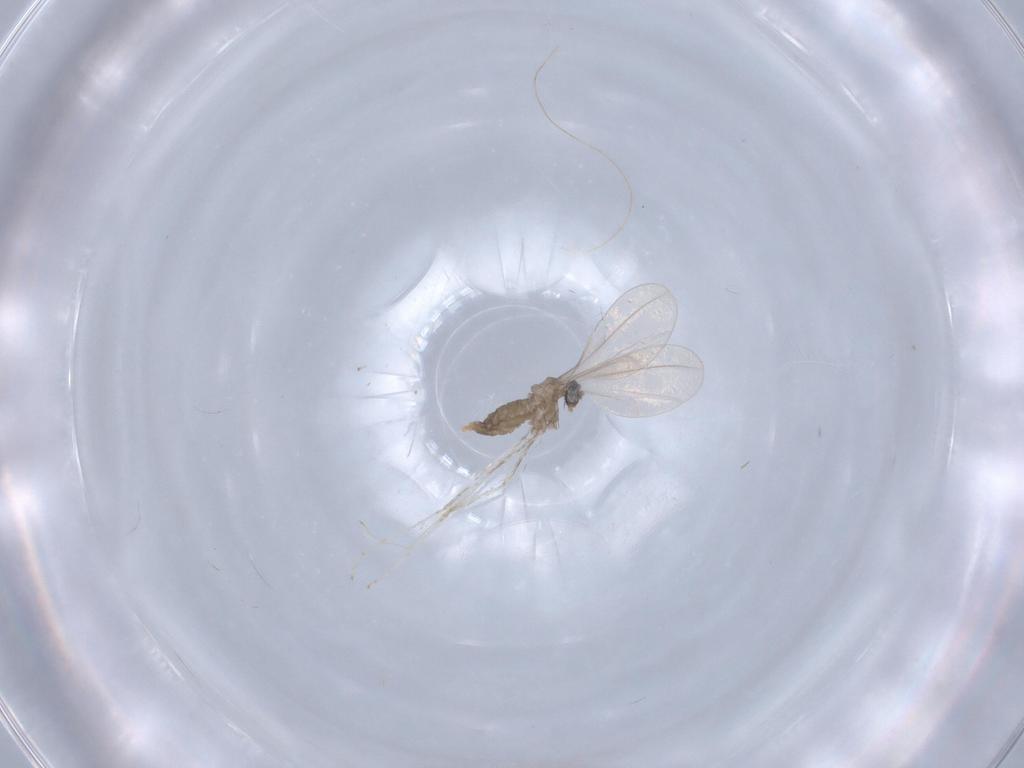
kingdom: Animalia
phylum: Arthropoda
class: Insecta
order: Diptera
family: Cecidomyiidae
